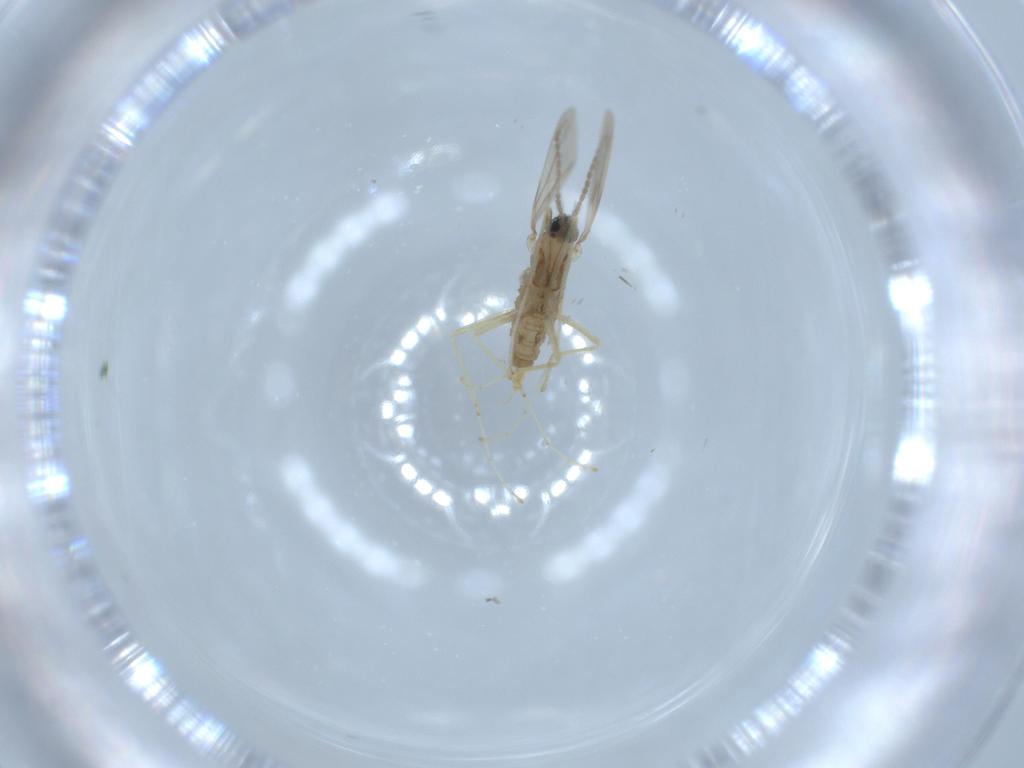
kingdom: Animalia
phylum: Arthropoda
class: Insecta
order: Diptera
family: Cecidomyiidae
